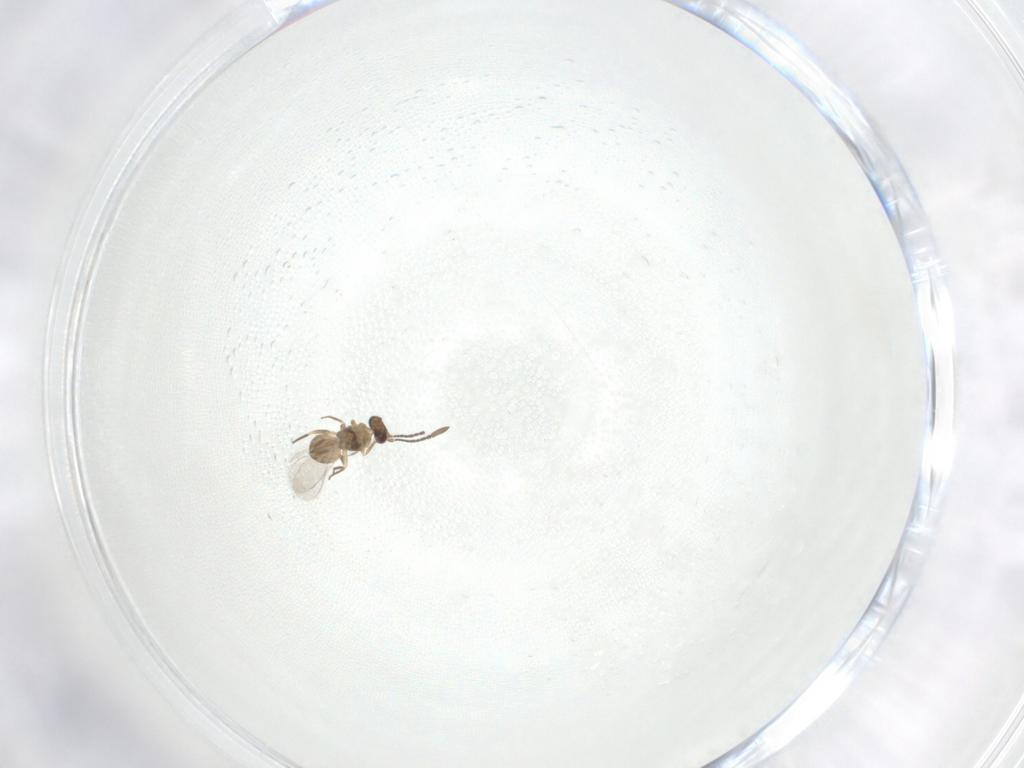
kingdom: Animalia
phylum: Arthropoda
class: Insecta
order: Hymenoptera
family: Mymaridae
